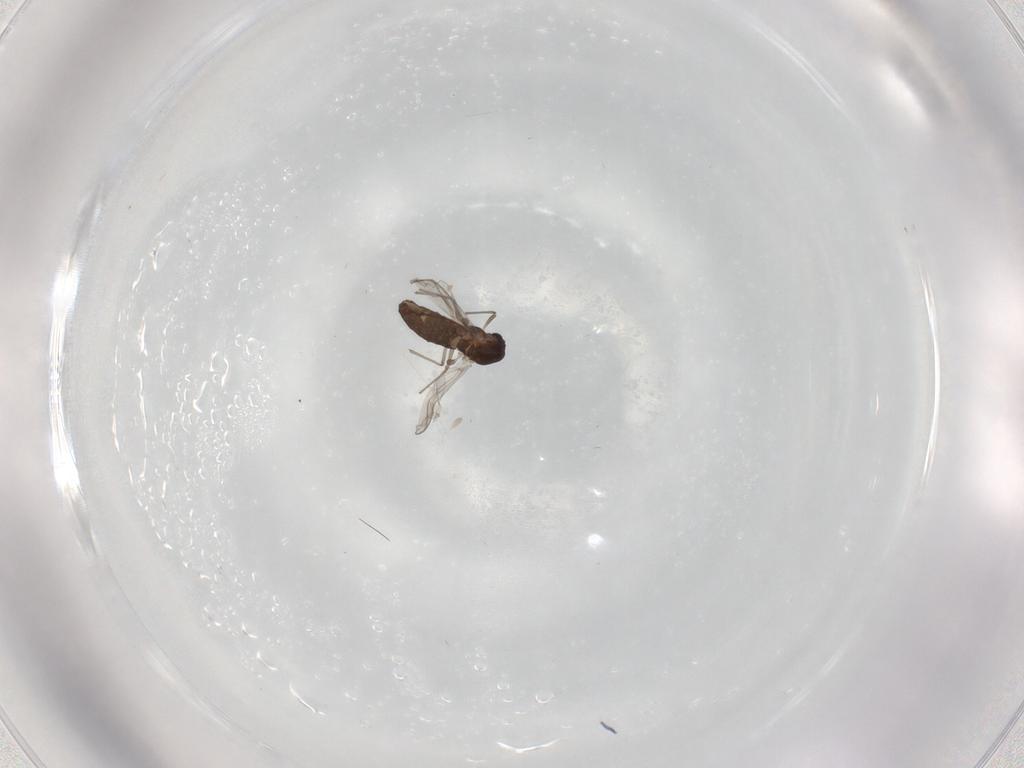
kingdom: Animalia
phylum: Arthropoda
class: Insecta
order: Diptera
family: Chironomidae
